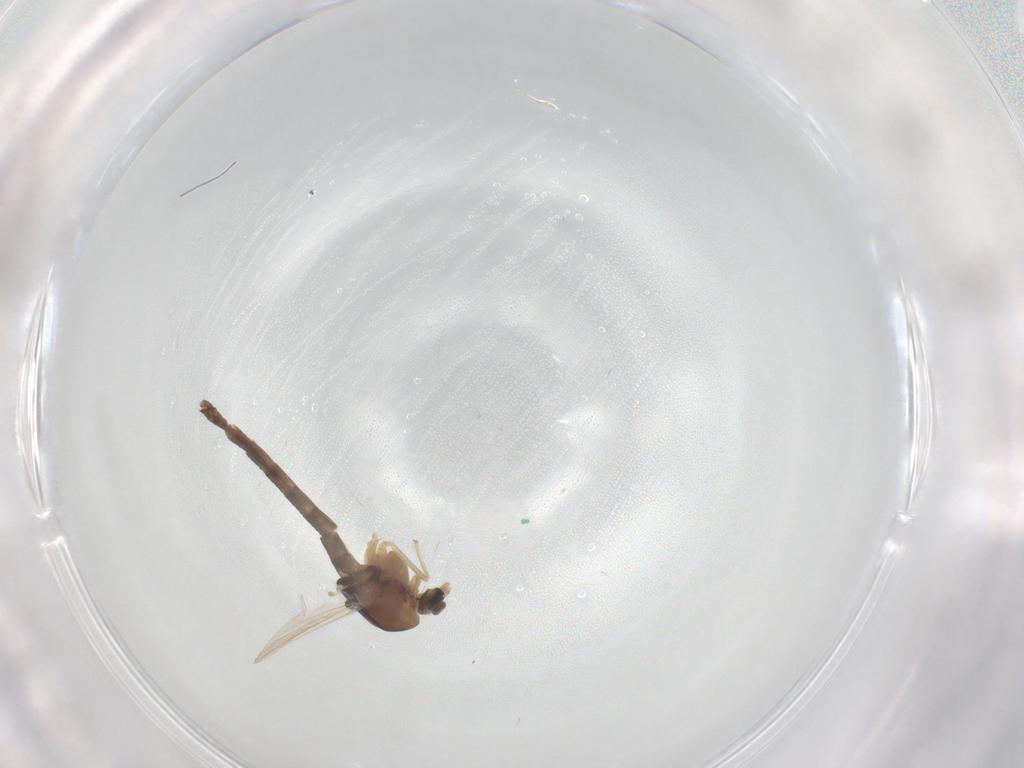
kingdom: Animalia
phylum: Arthropoda
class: Insecta
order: Diptera
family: Chironomidae
